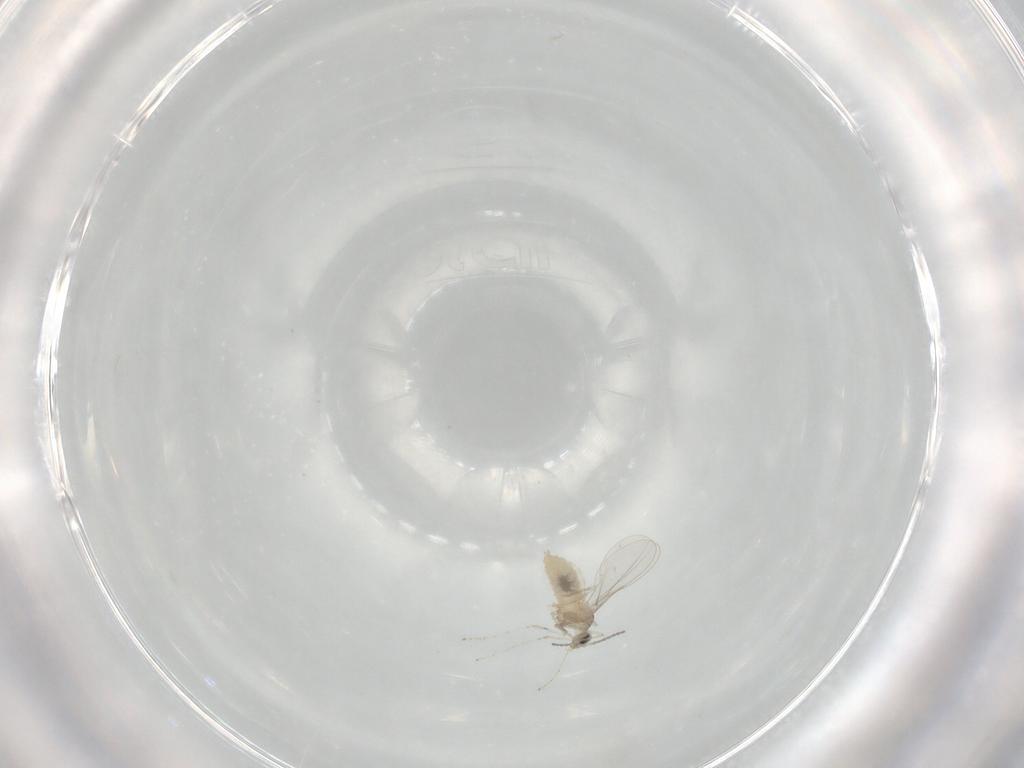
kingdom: Animalia
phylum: Arthropoda
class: Insecta
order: Diptera
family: Cecidomyiidae
